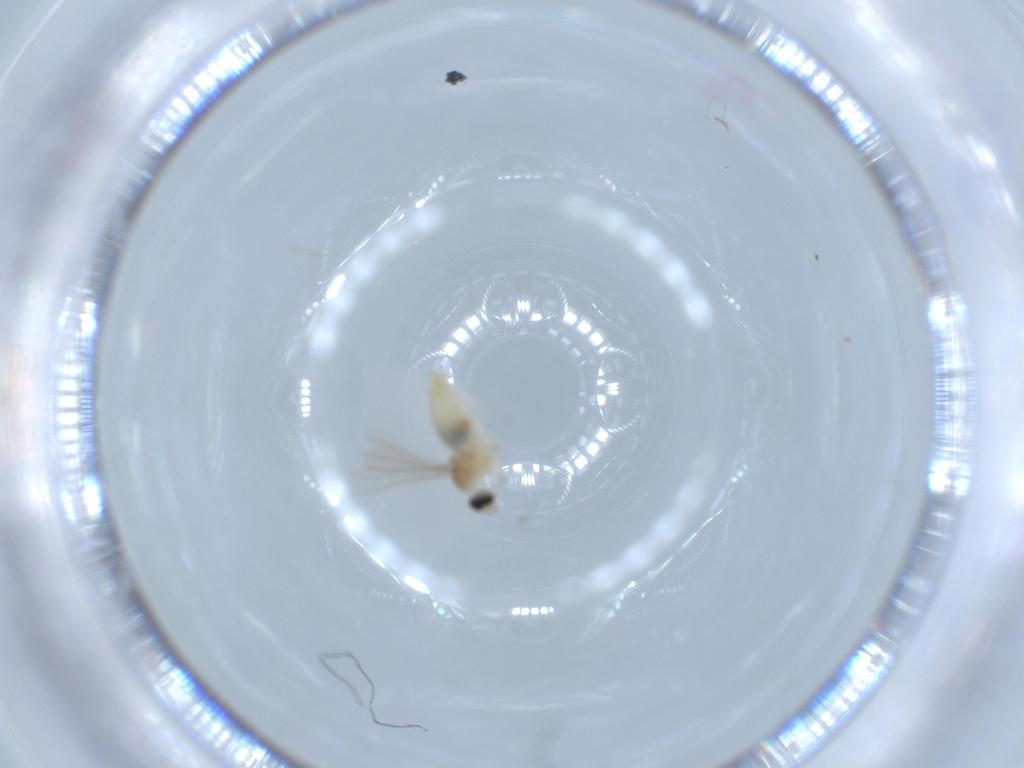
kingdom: Animalia
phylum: Arthropoda
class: Insecta
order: Diptera
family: Cecidomyiidae
